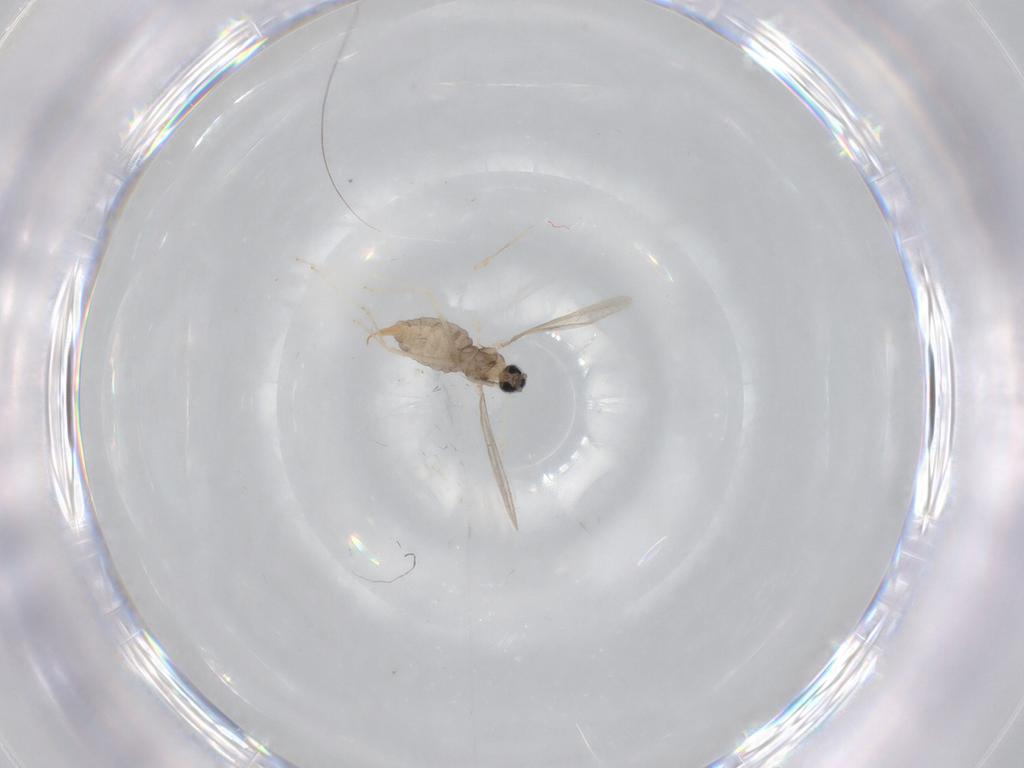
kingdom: Animalia
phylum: Arthropoda
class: Insecta
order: Diptera
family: Cecidomyiidae
